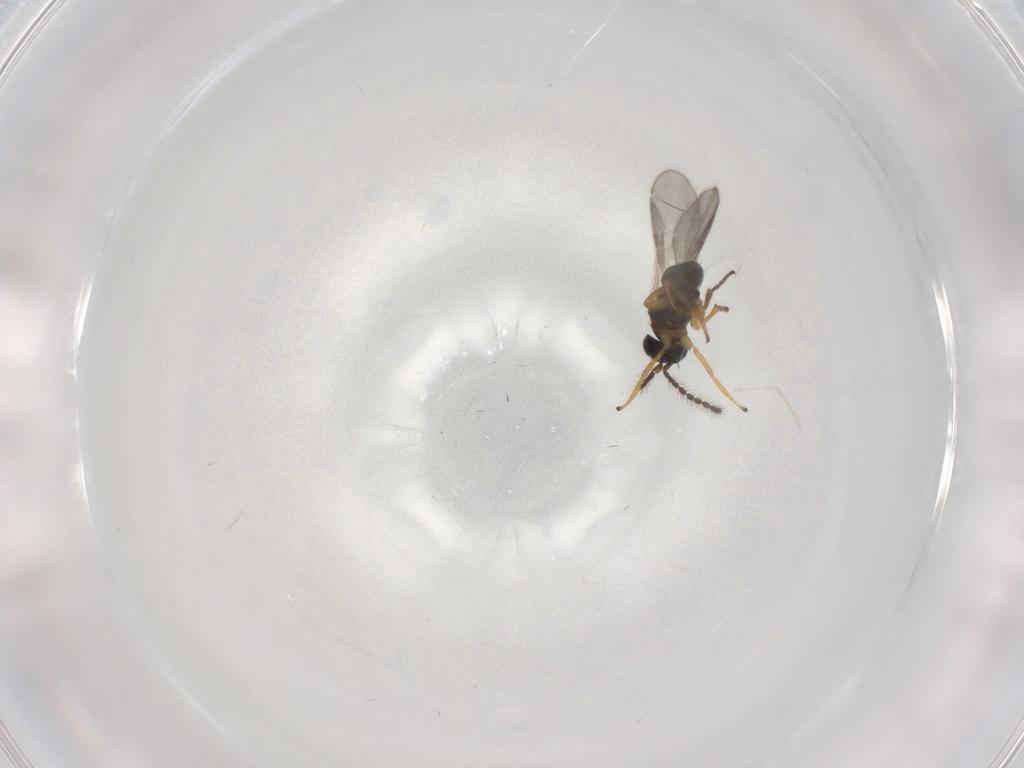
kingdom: Animalia
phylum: Arthropoda
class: Insecta
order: Hymenoptera
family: Encyrtidae
